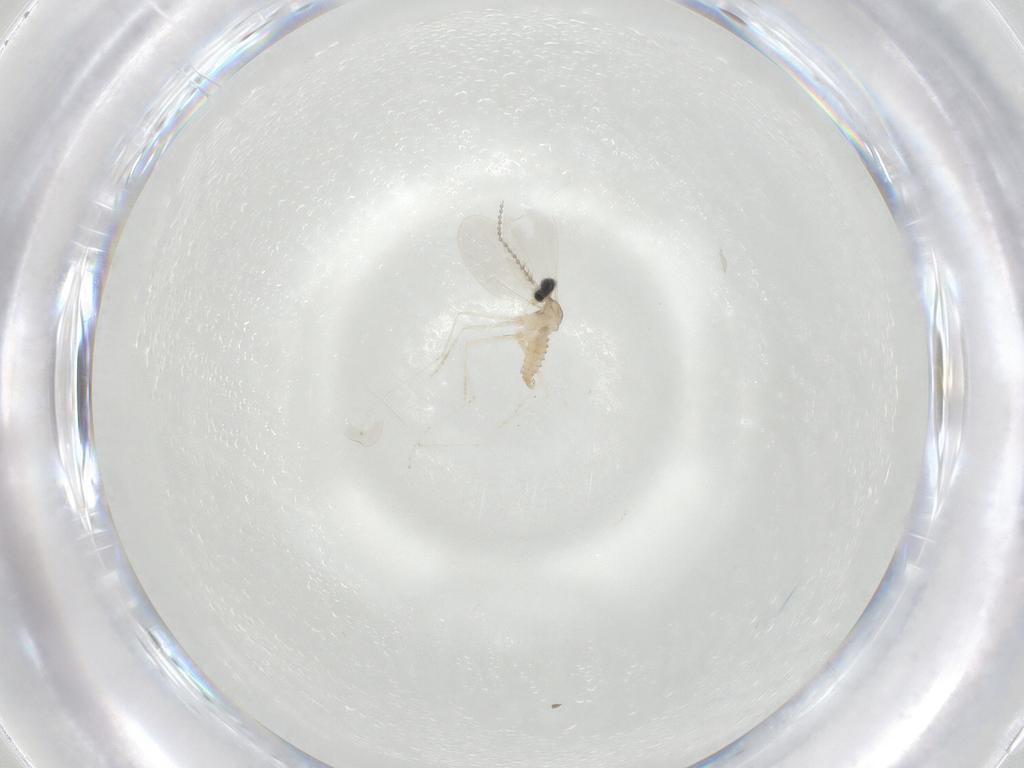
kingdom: Animalia
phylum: Arthropoda
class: Insecta
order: Diptera
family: Cecidomyiidae
